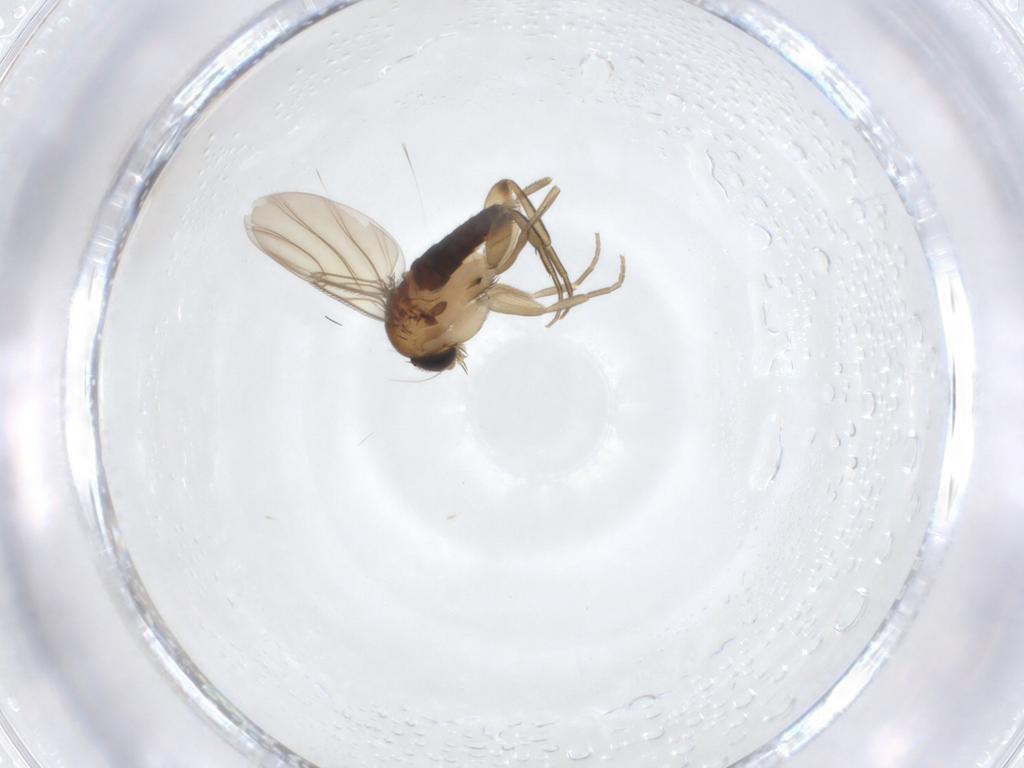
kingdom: Animalia
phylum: Arthropoda
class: Insecta
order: Diptera
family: Phoridae
